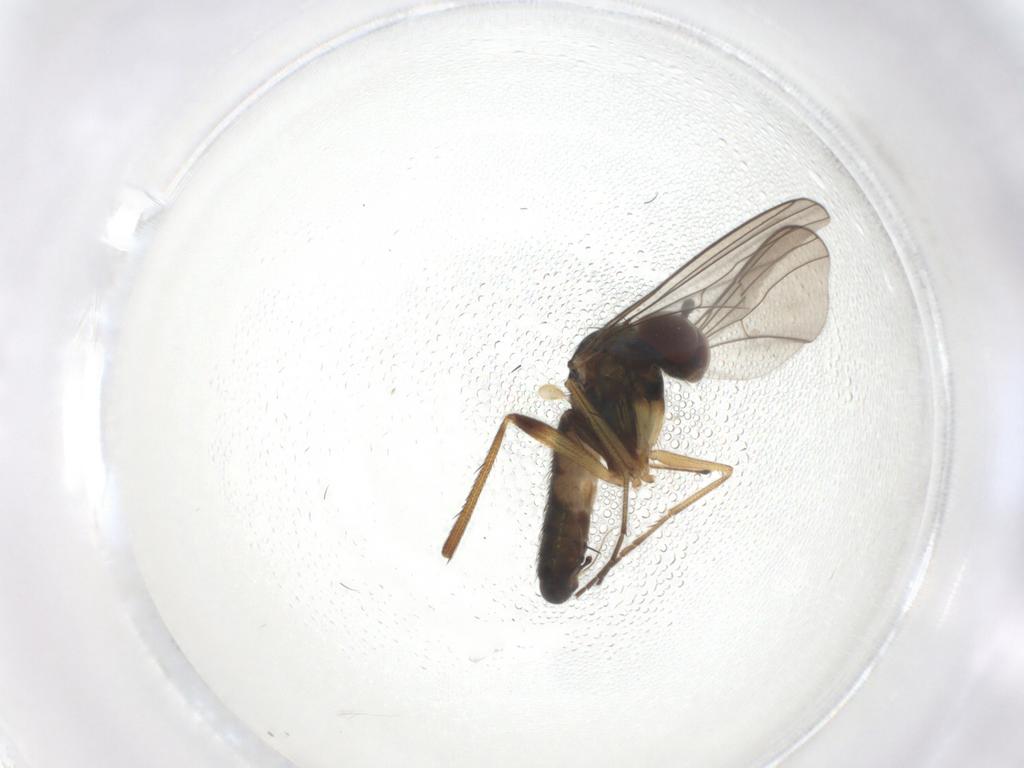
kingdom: Animalia
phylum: Arthropoda
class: Insecta
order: Diptera
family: Dolichopodidae
